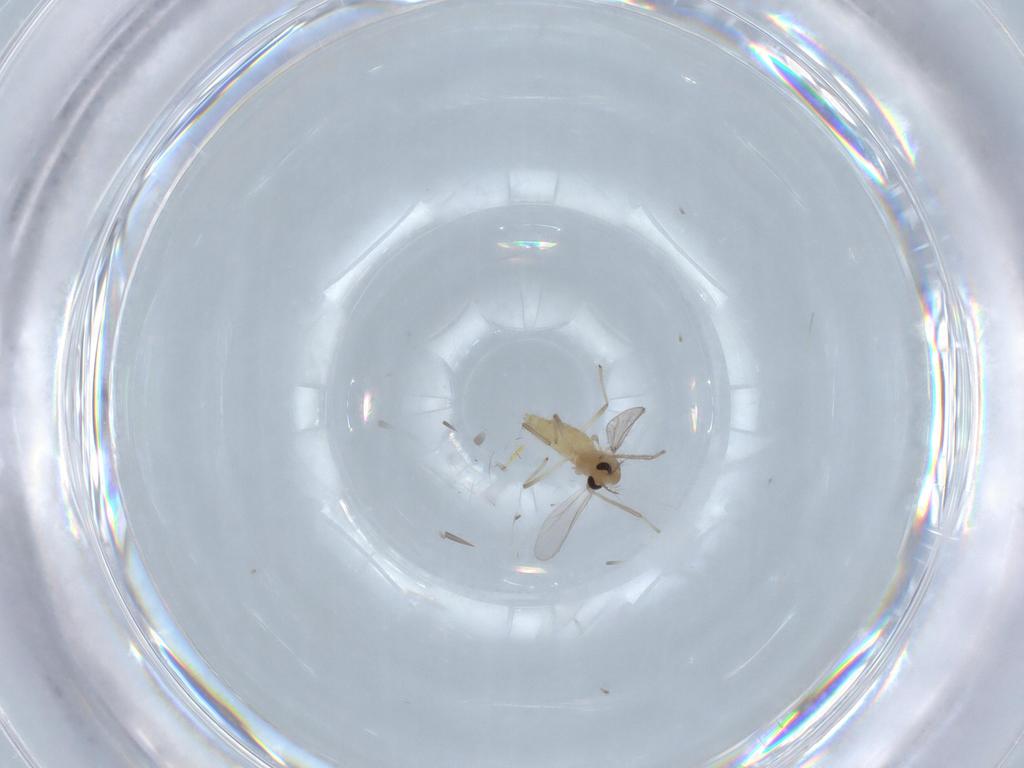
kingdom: Animalia
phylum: Arthropoda
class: Insecta
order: Diptera
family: Chironomidae
